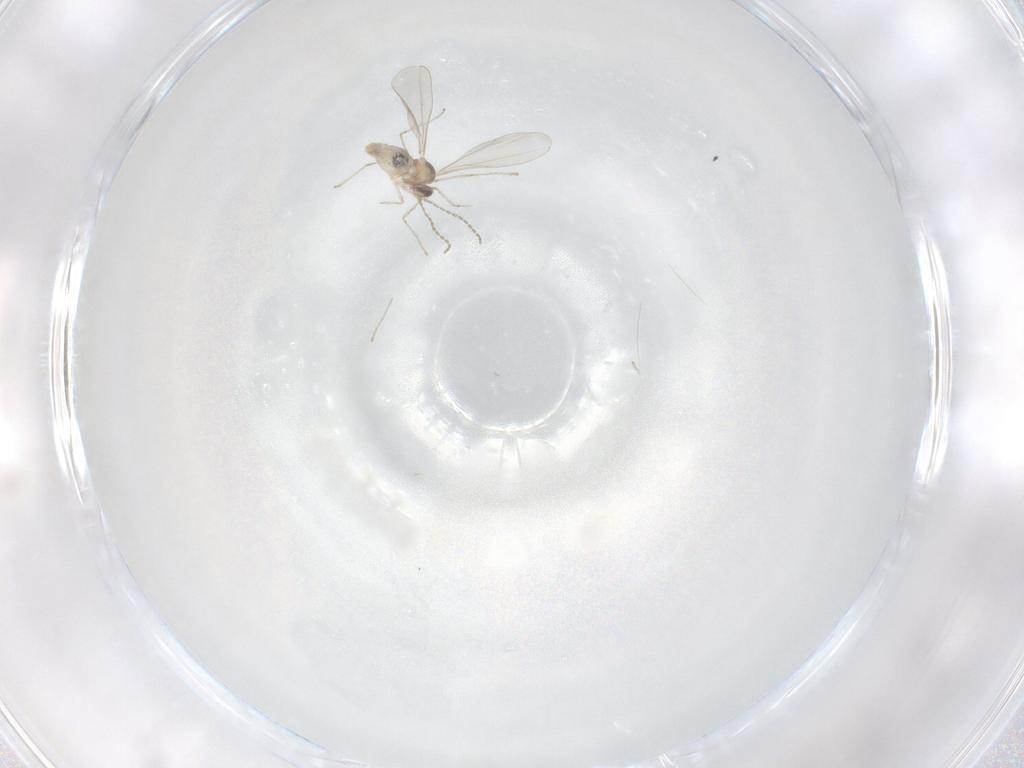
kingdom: Animalia
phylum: Arthropoda
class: Insecta
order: Diptera
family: Cecidomyiidae
